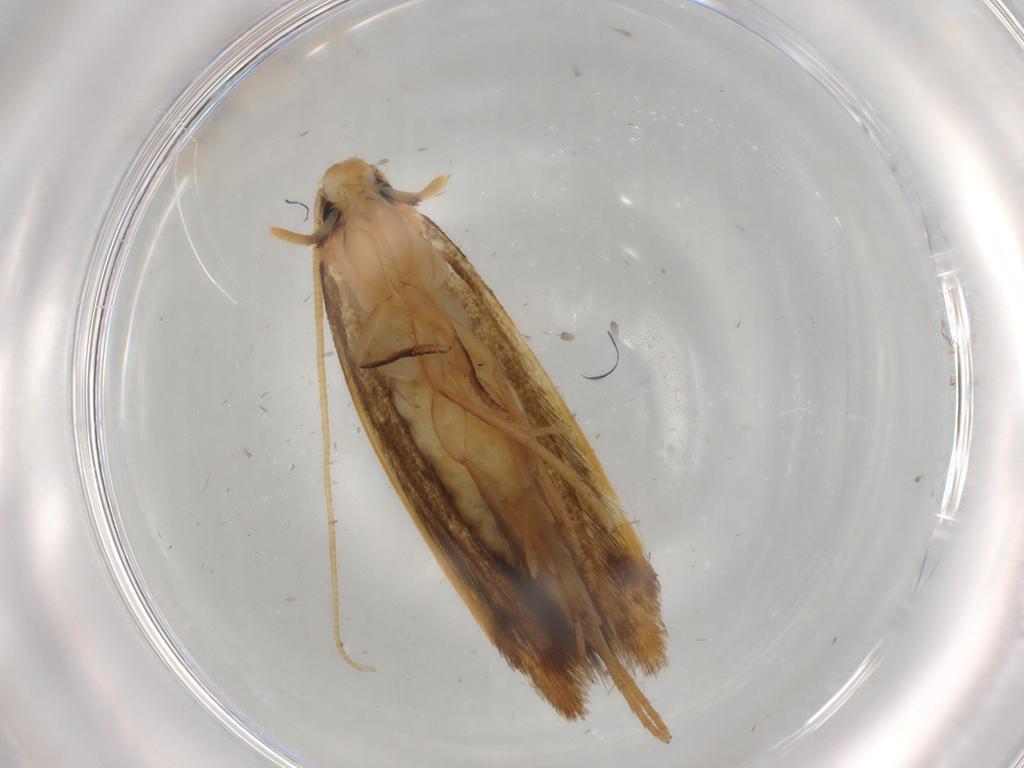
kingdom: Animalia
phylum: Arthropoda
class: Insecta
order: Lepidoptera
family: Tineidae
